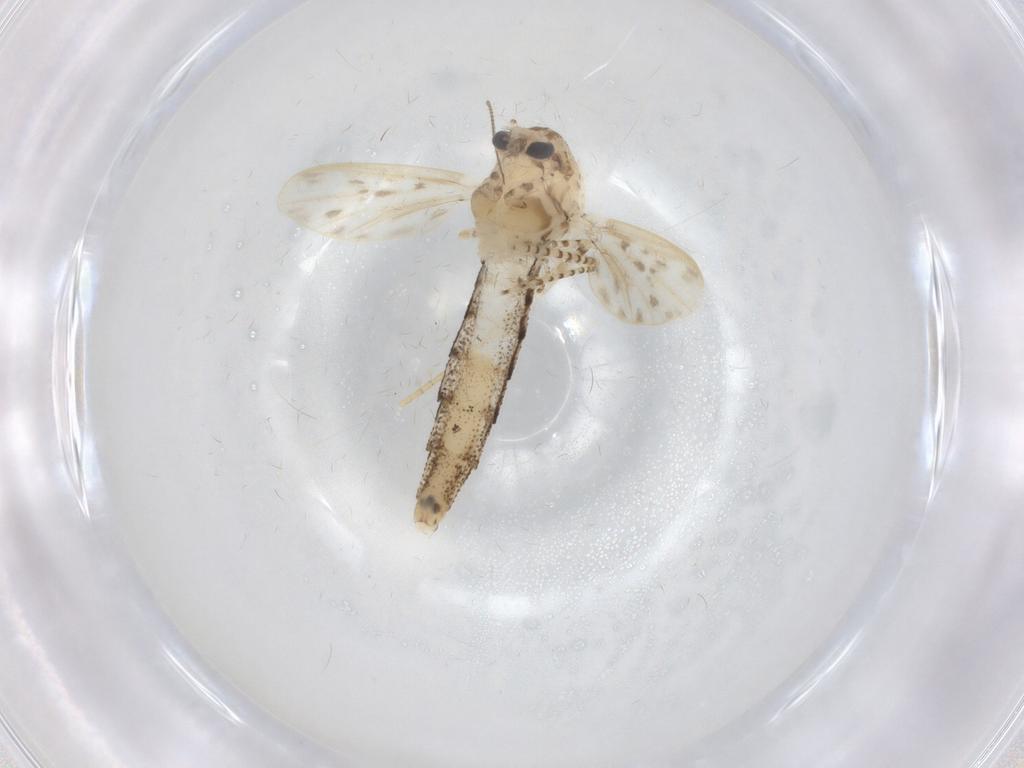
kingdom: Animalia
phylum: Arthropoda
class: Insecta
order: Diptera
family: Chaoboridae
